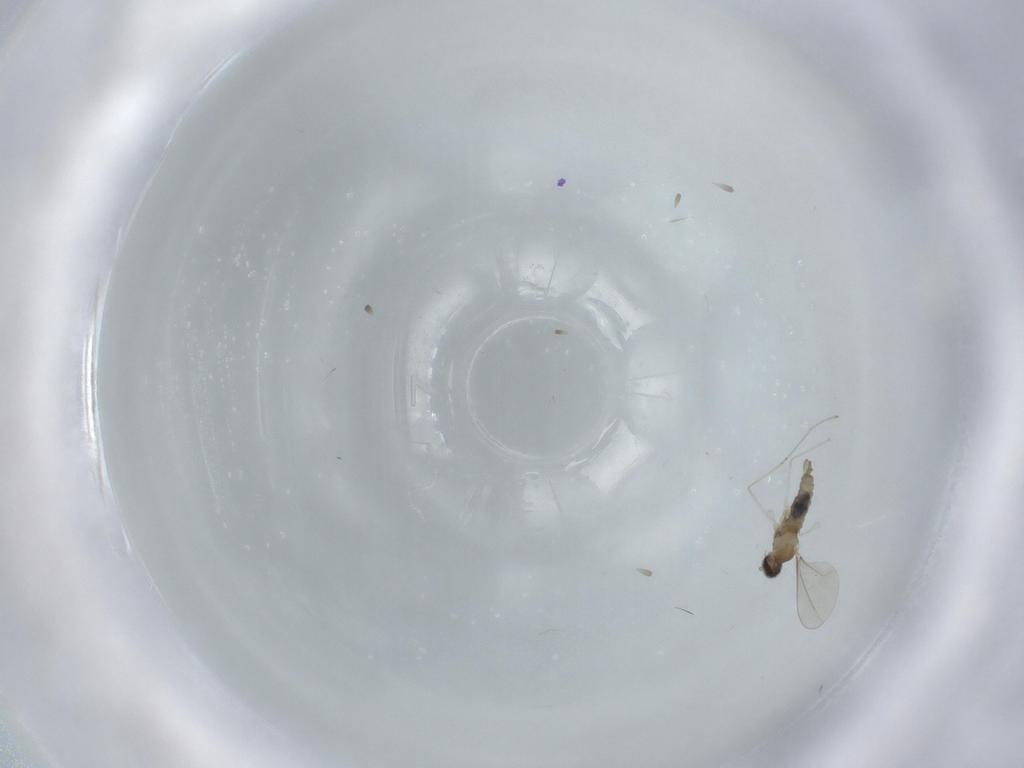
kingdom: Animalia
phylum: Arthropoda
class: Insecta
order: Diptera
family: Cecidomyiidae
